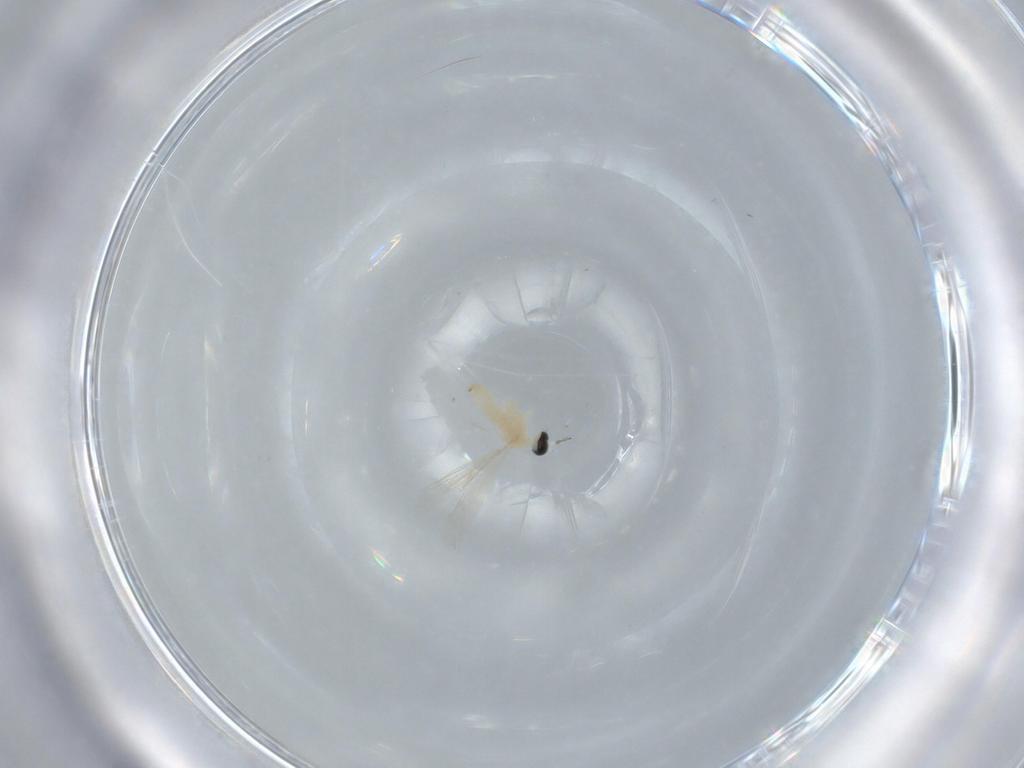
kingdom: Animalia
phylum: Arthropoda
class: Insecta
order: Diptera
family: Cecidomyiidae
